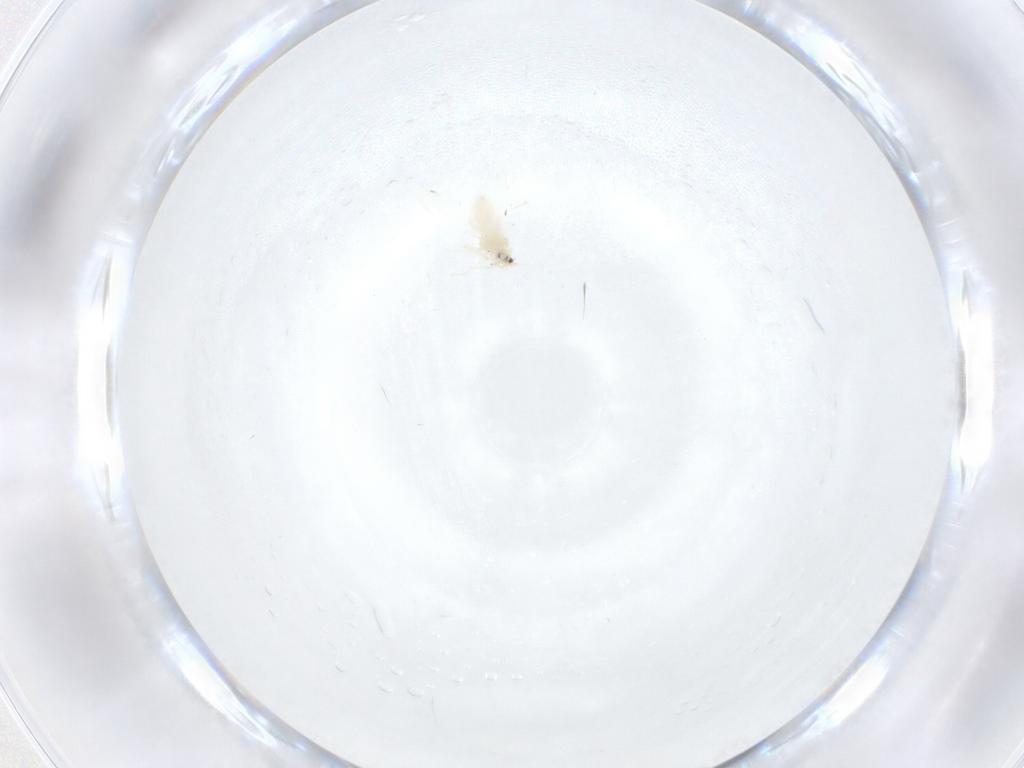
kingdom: Animalia
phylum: Arthropoda
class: Insecta
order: Hemiptera
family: Aleyrodidae
